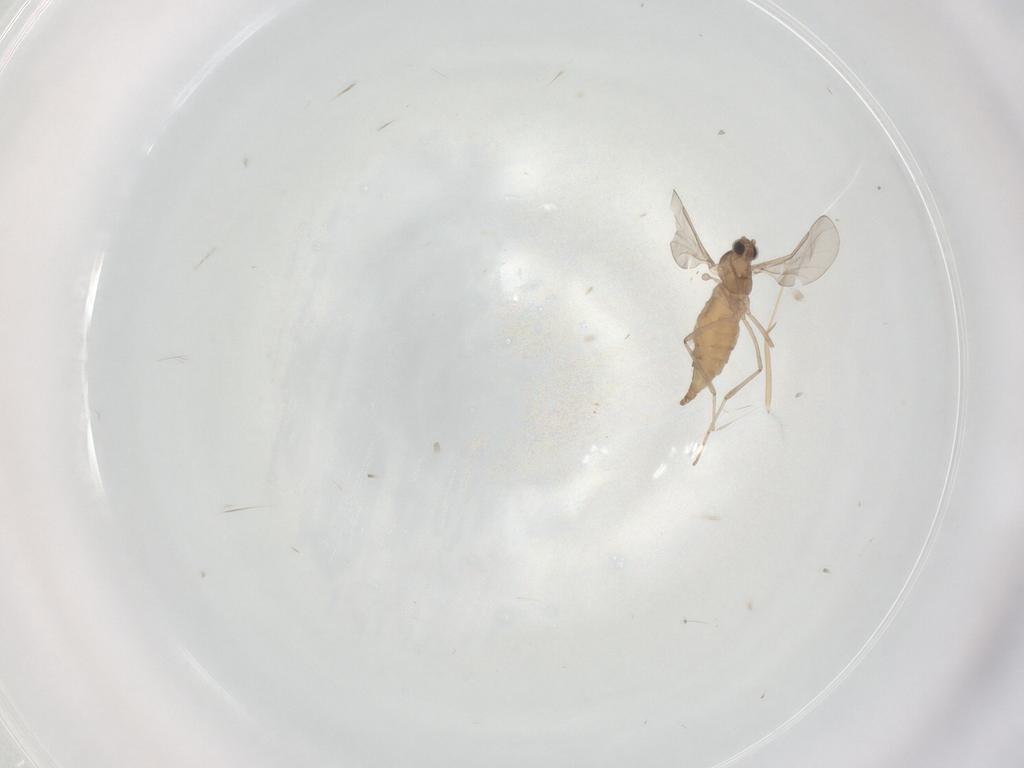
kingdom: Animalia
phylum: Arthropoda
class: Insecta
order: Diptera
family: Cecidomyiidae
